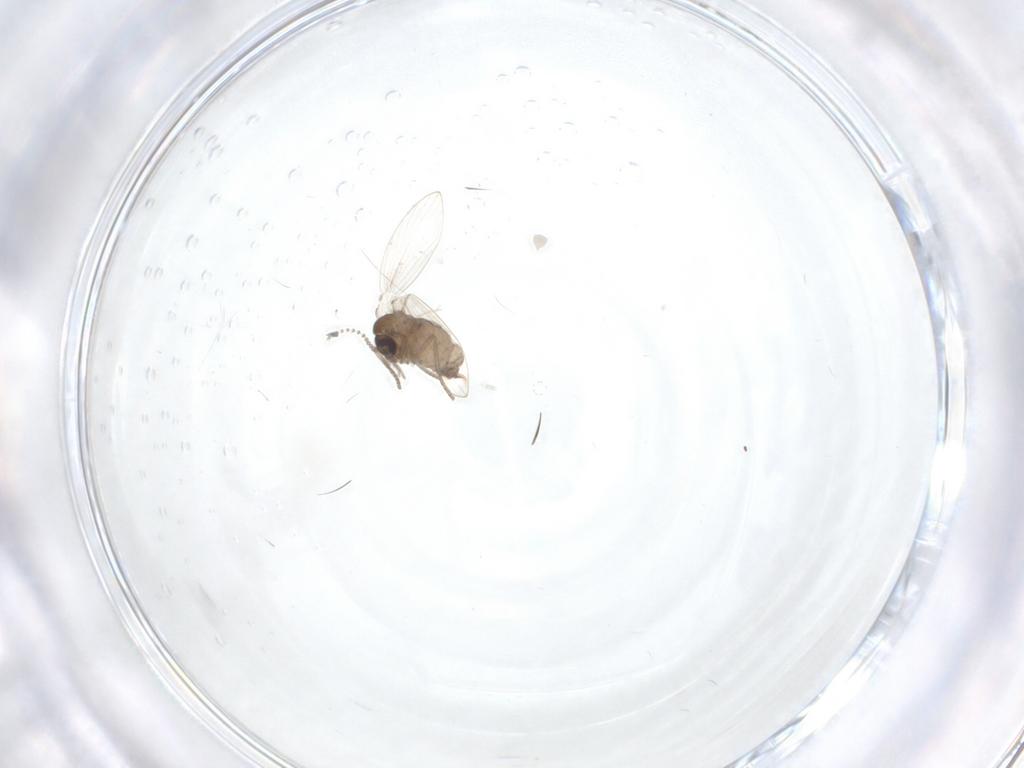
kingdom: Animalia
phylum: Arthropoda
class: Insecta
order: Diptera
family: Psychodidae
